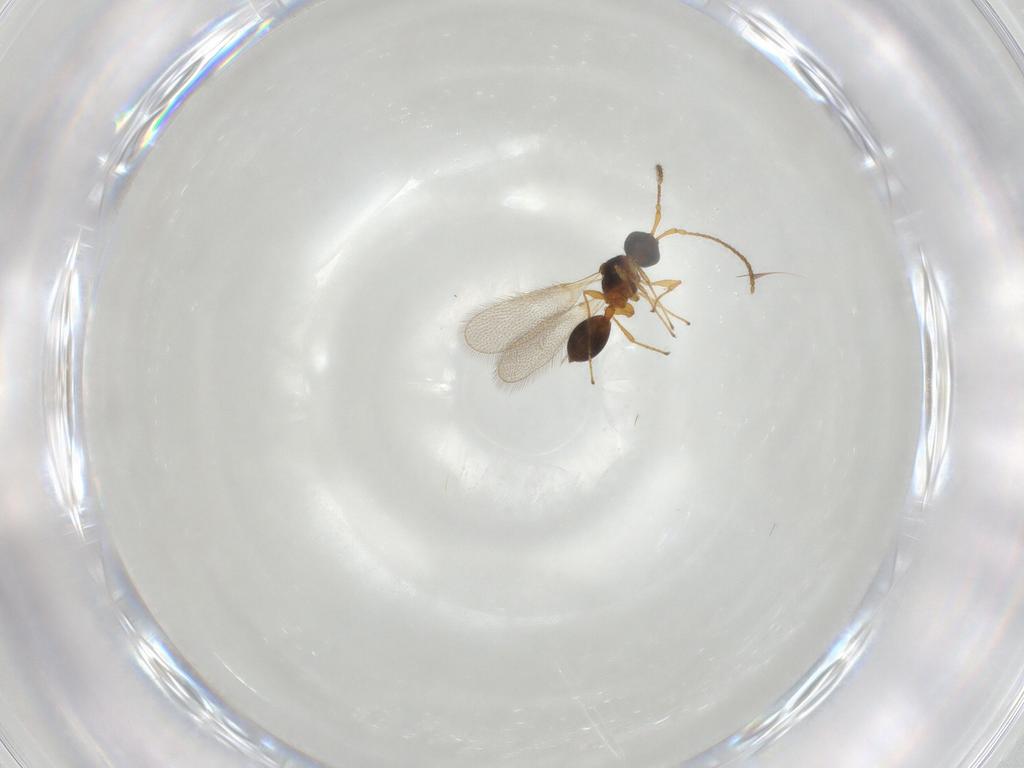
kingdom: Animalia
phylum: Arthropoda
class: Insecta
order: Hymenoptera
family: Diapriidae
